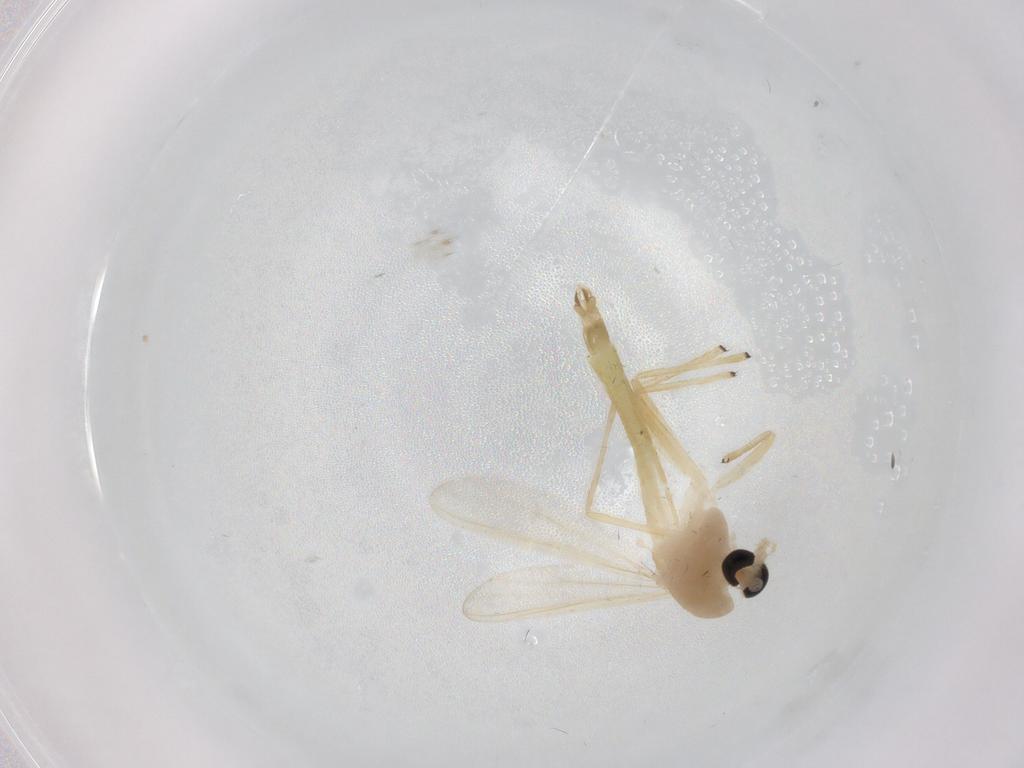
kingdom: Animalia
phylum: Arthropoda
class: Insecta
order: Diptera
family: Chironomidae
